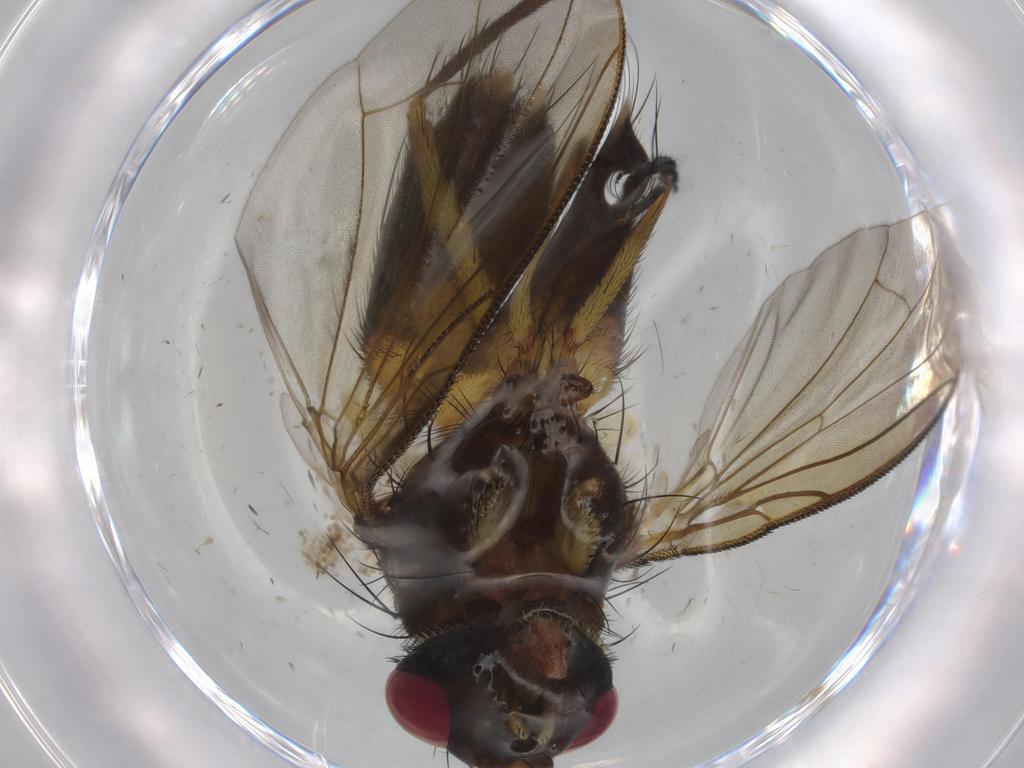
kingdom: Animalia
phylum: Arthropoda
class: Insecta
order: Diptera
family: Cecidomyiidae
